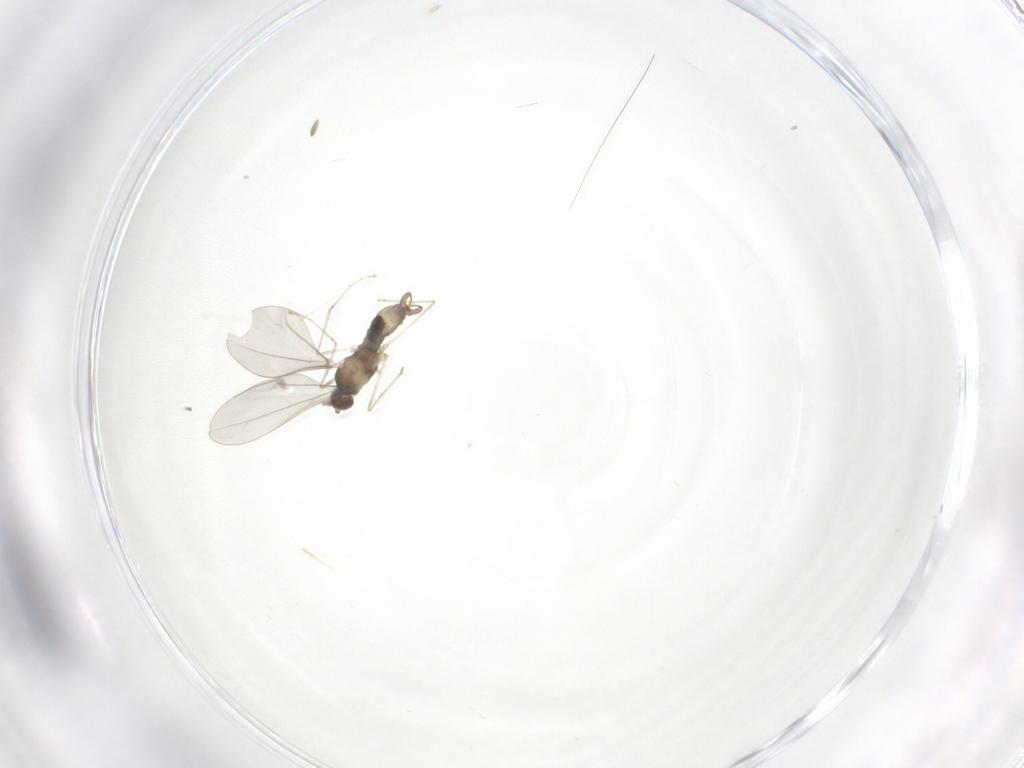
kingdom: Animalia
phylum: Arthropoda
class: Insecta
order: Diptera
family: Cecidomyiidae
